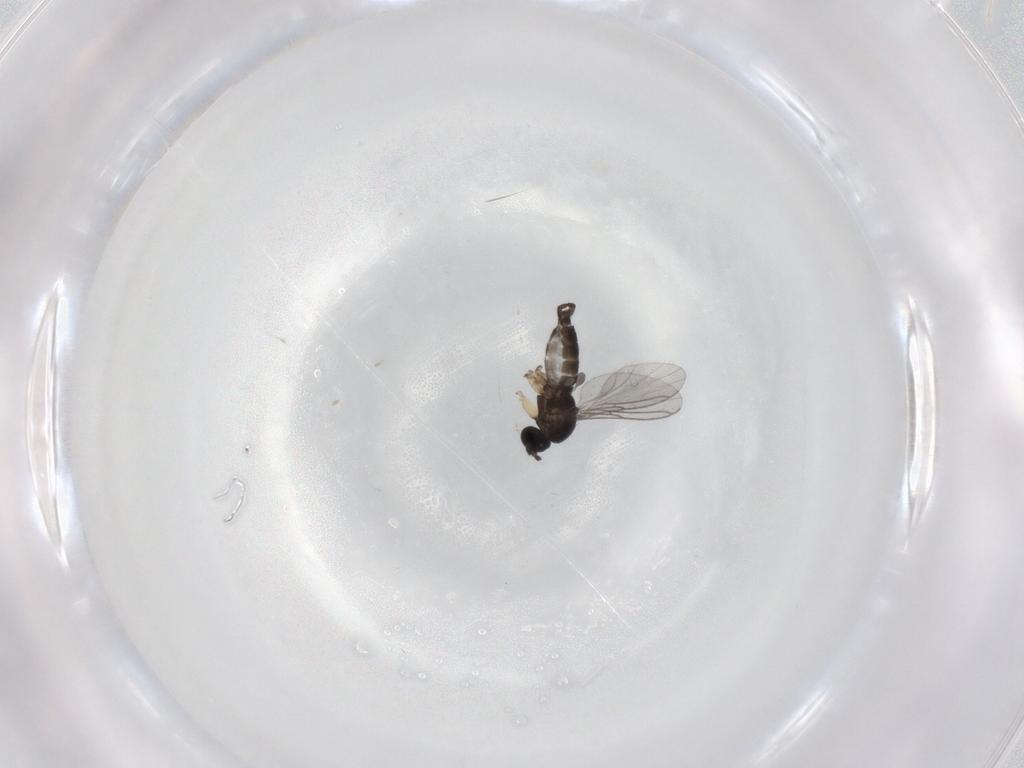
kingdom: Animalia
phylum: Arthropoda
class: Insecta
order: Diptera
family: Sciaridae
